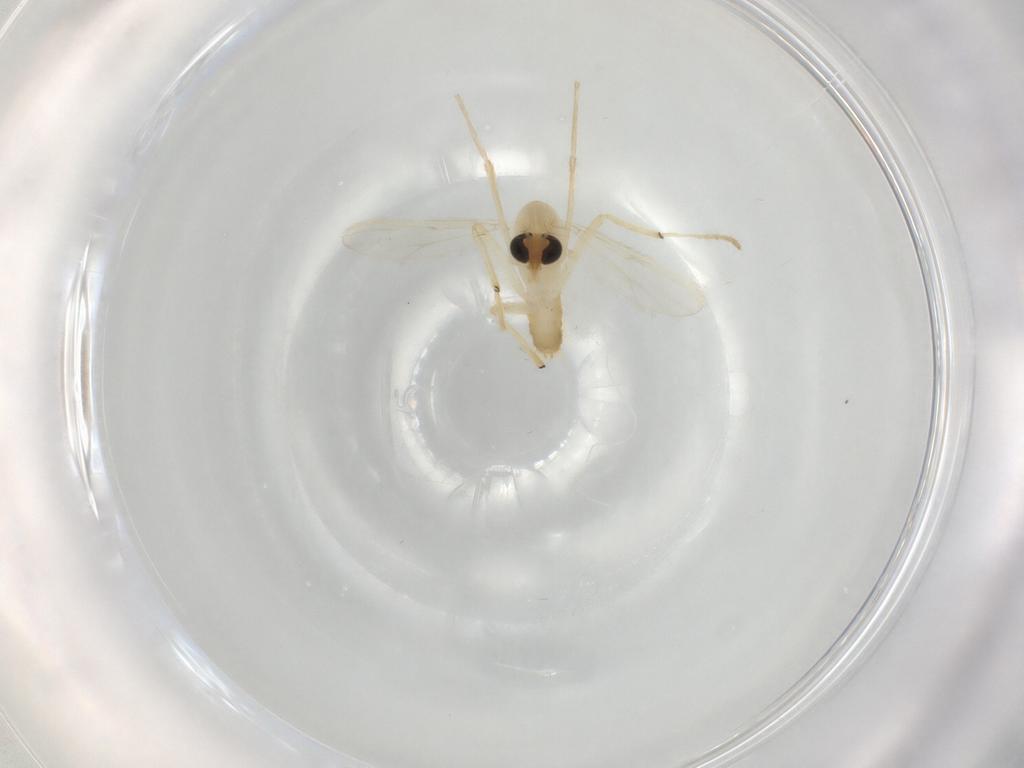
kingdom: Animalia
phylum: Arthropoda
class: Insecta
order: Diptera
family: Chironomidae
